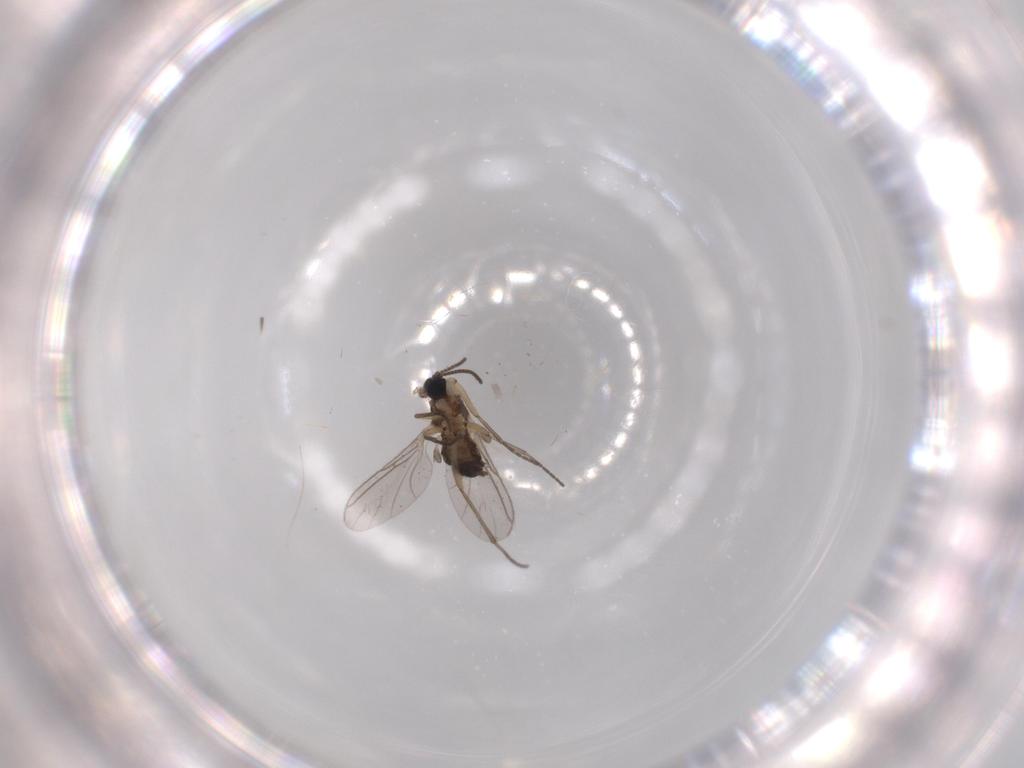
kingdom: Animalia
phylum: Arthropoda
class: Insecta
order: Diptera
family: Sciaridae
